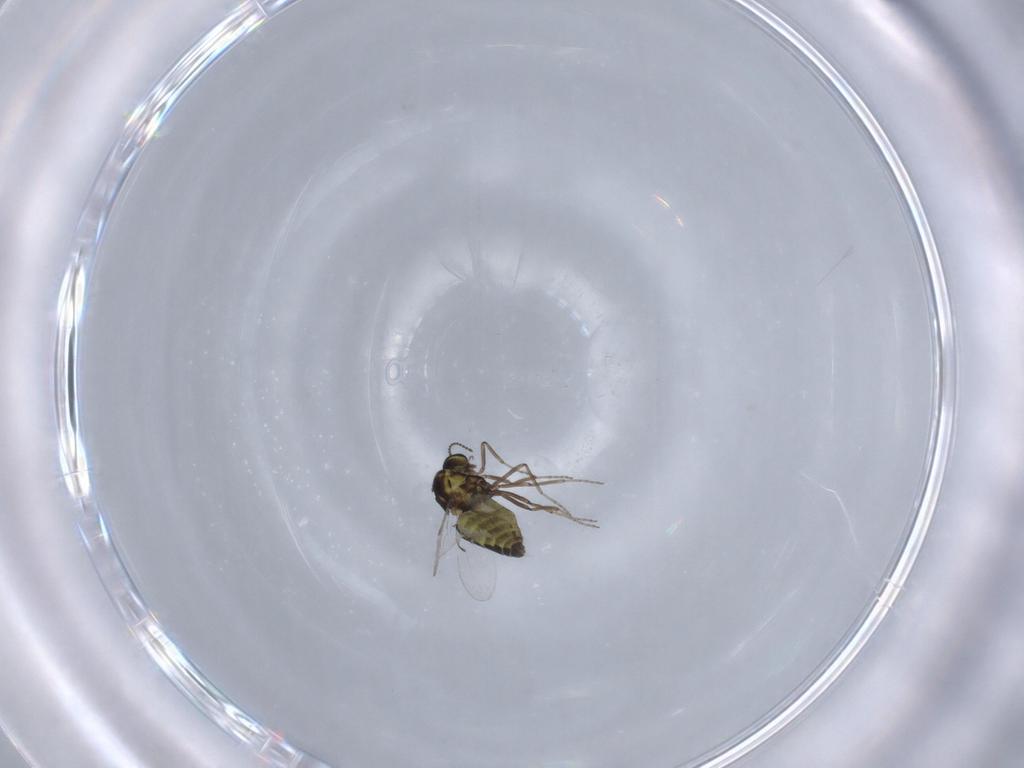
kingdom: Animalia
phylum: Arthropoda
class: Insecta
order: Diptera
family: Ceratopogonidae
